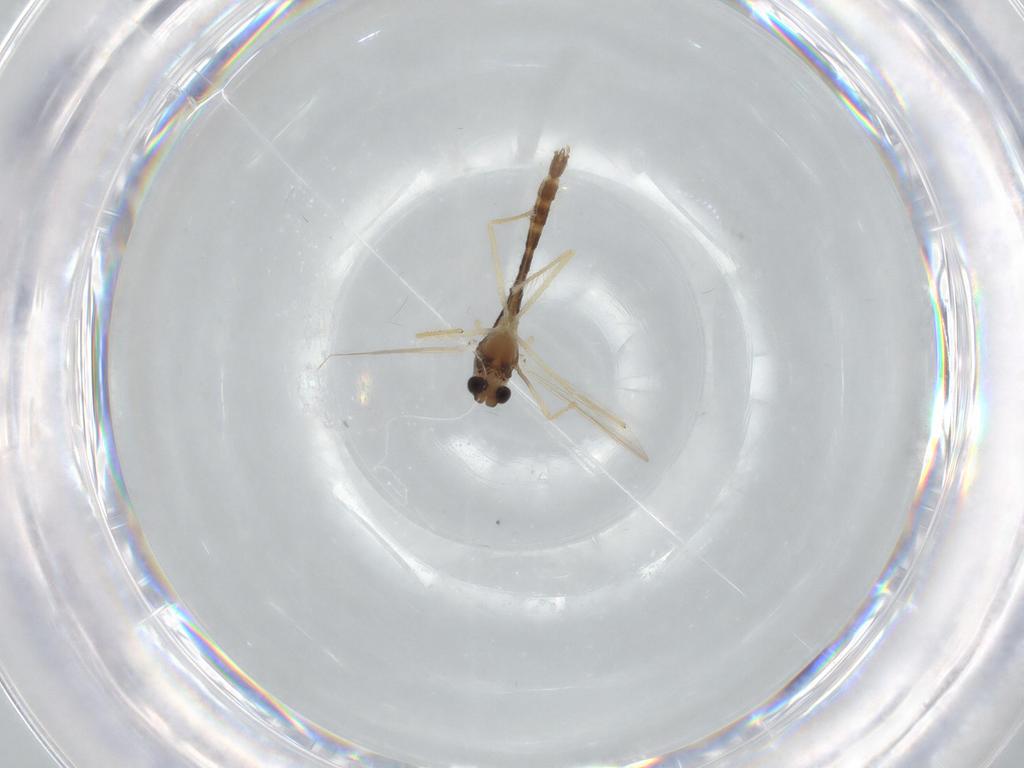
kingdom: Animalia
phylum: Arthropoda
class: Insecta
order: Diptera
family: Chironomidae
